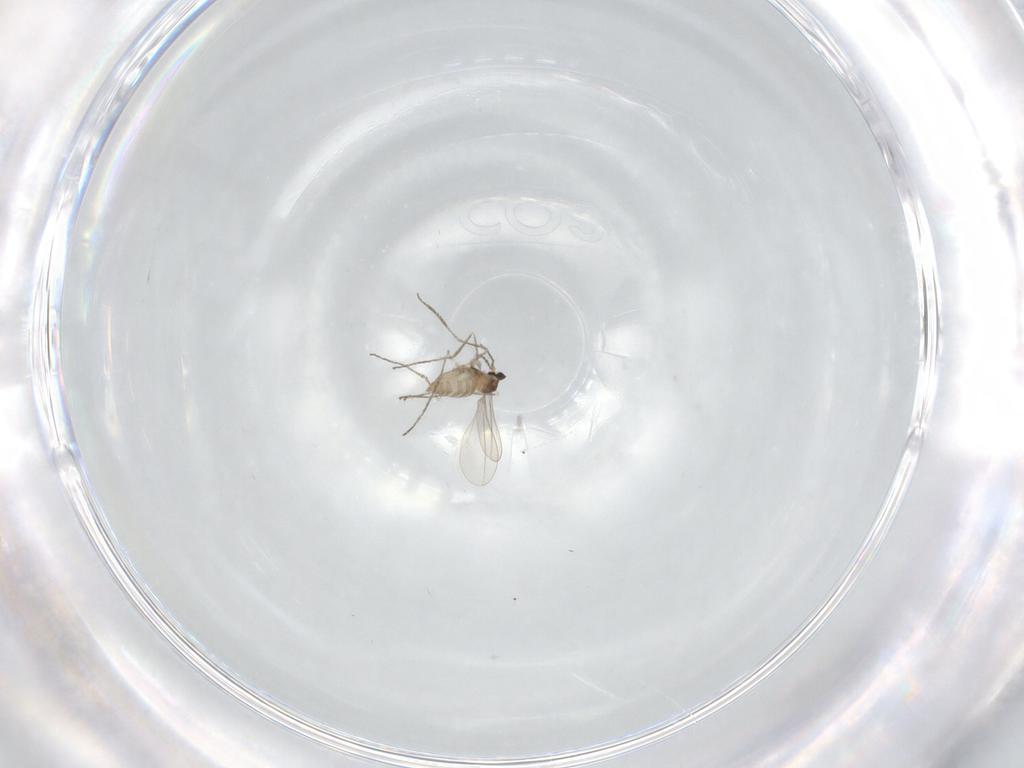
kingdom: Animalia
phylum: Arthropoda
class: Insecta
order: Diptera
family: Cecidomyiidae
